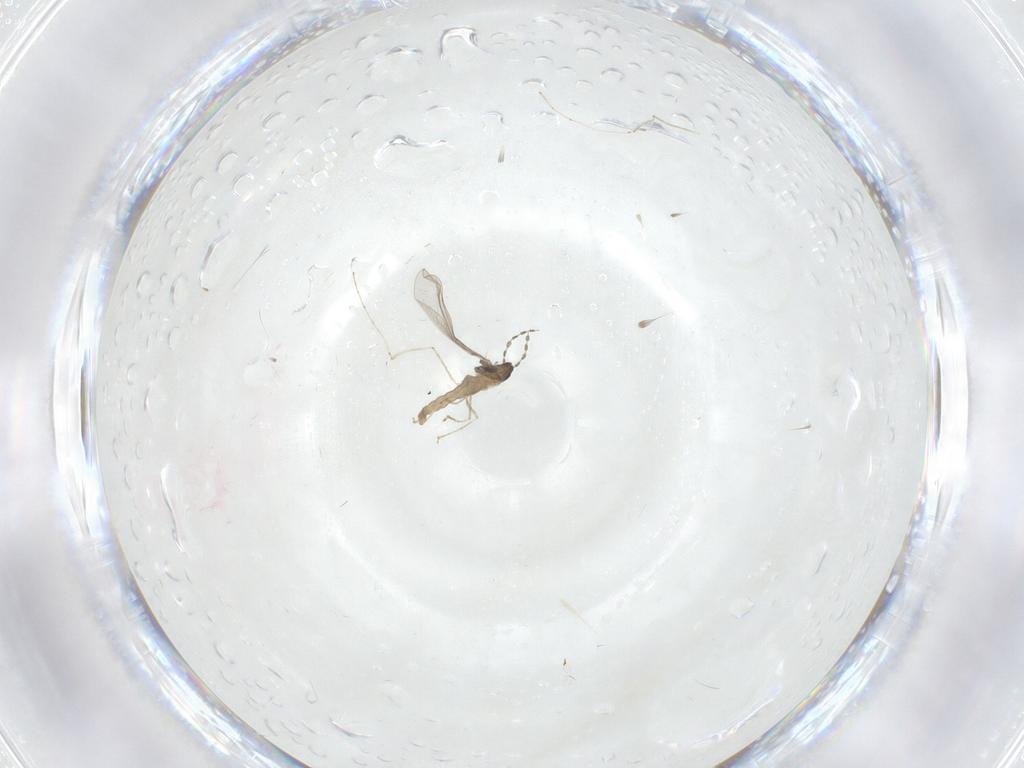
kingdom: Animalia
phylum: Arthropoda
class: Insecta
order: Diptera
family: Cecidomyiidae
